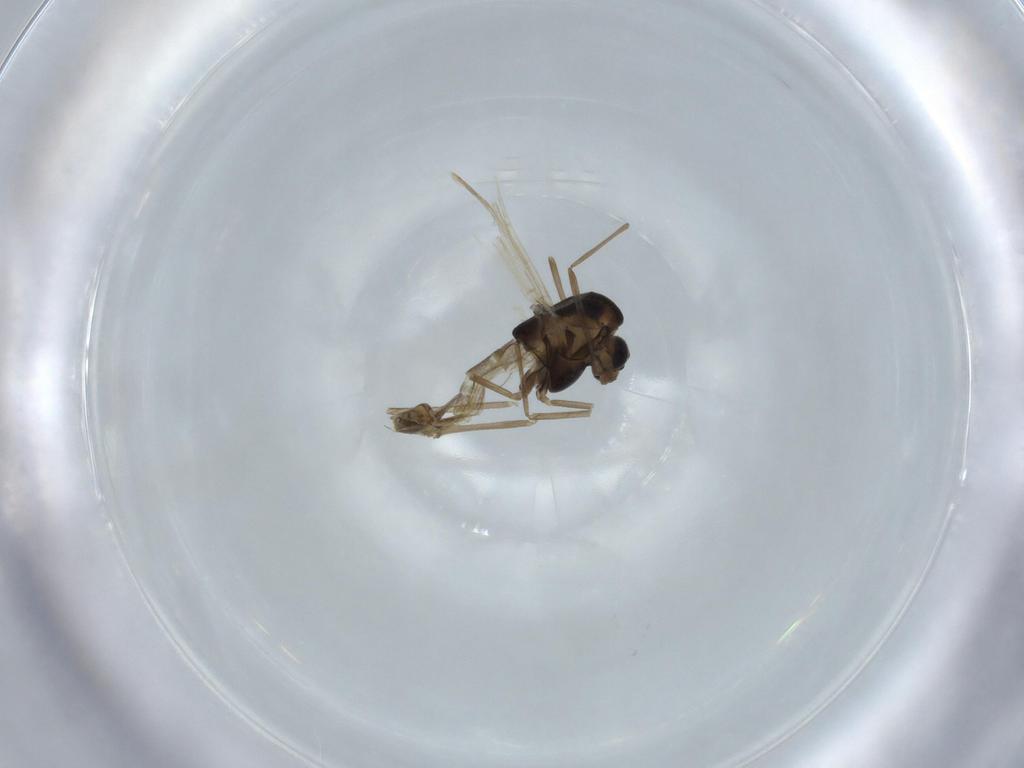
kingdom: Animalia
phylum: Arthropoda
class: Insecta
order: Diptera
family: Chironomidae
